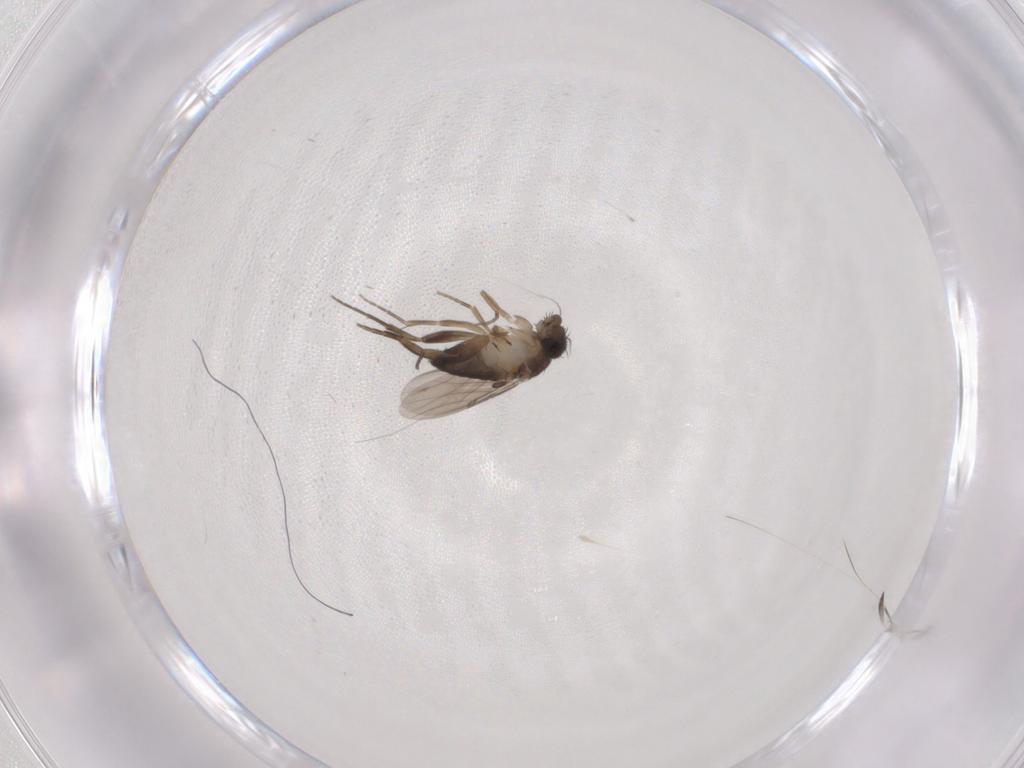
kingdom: Animalia
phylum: Arthropoda
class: Insecta
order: Diptera
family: Phoridae
